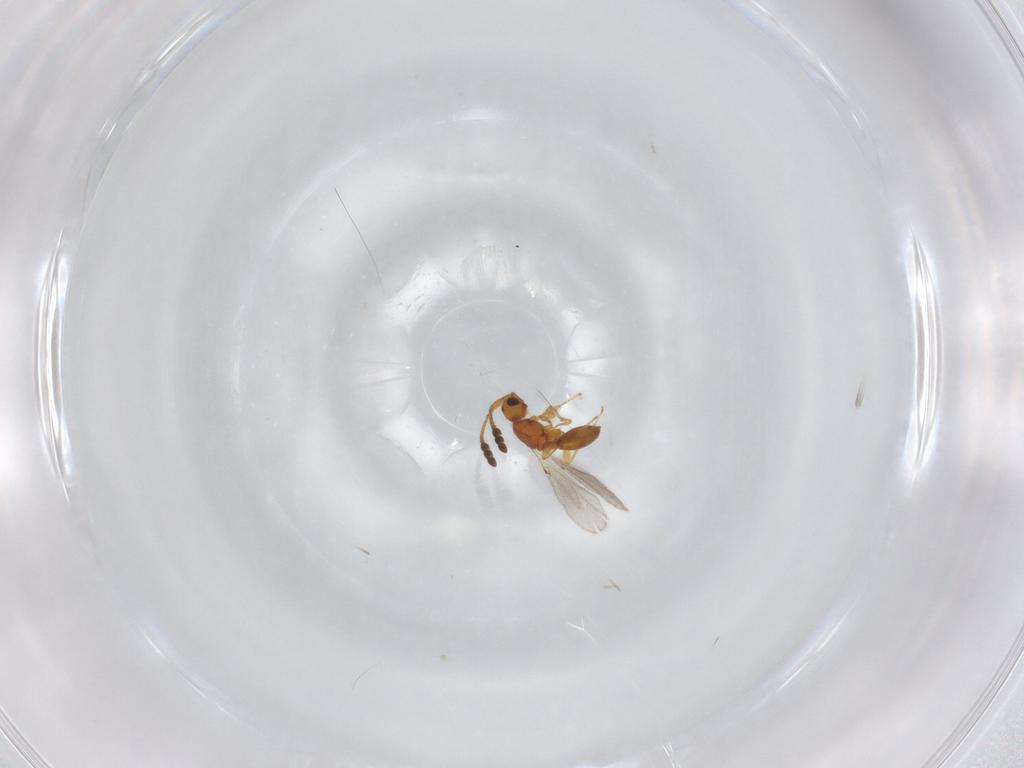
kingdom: Animalia
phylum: Arthropoda
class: Insecta
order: Hymenoptera
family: Diapriidae
